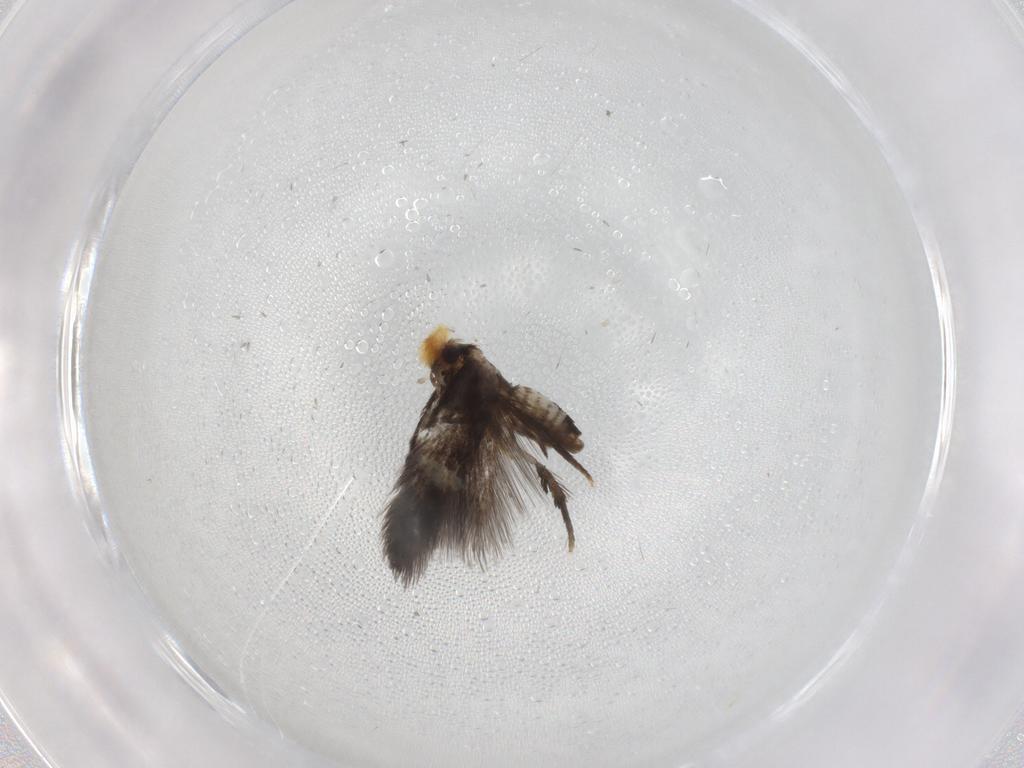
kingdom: Animalia
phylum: Arthropoda
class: Insecta
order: Lepidoptera
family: Nepticulidae
